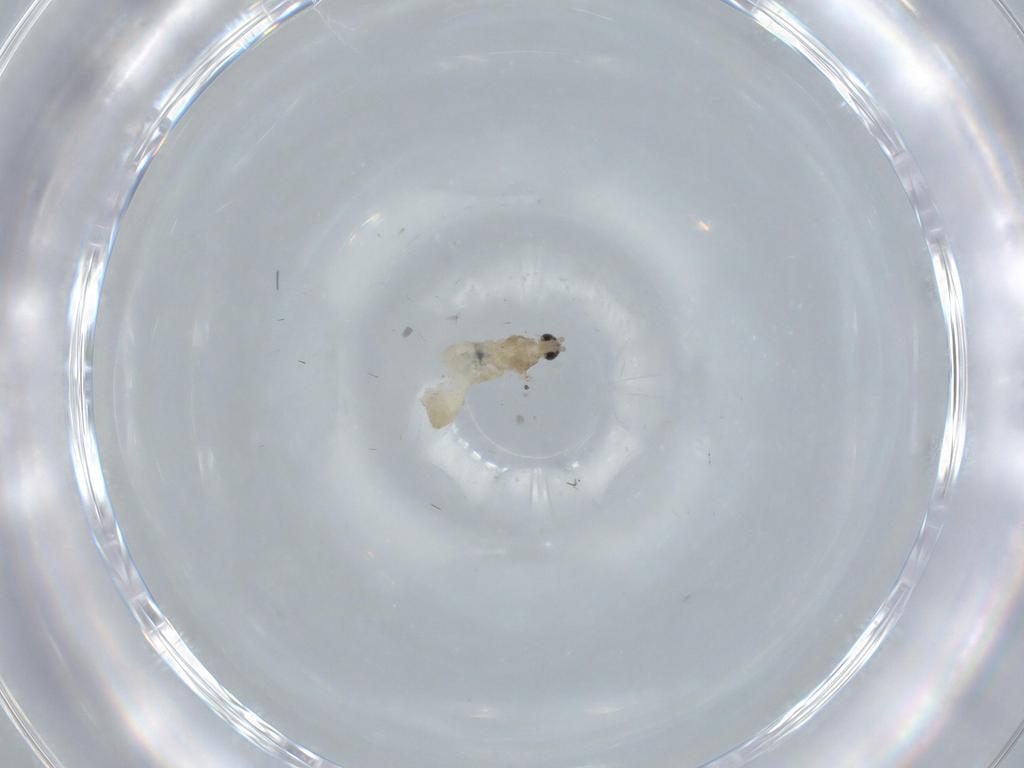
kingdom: Animalia
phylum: Arthropoda
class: Insecta
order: Diptera
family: Cecidomyiidae
